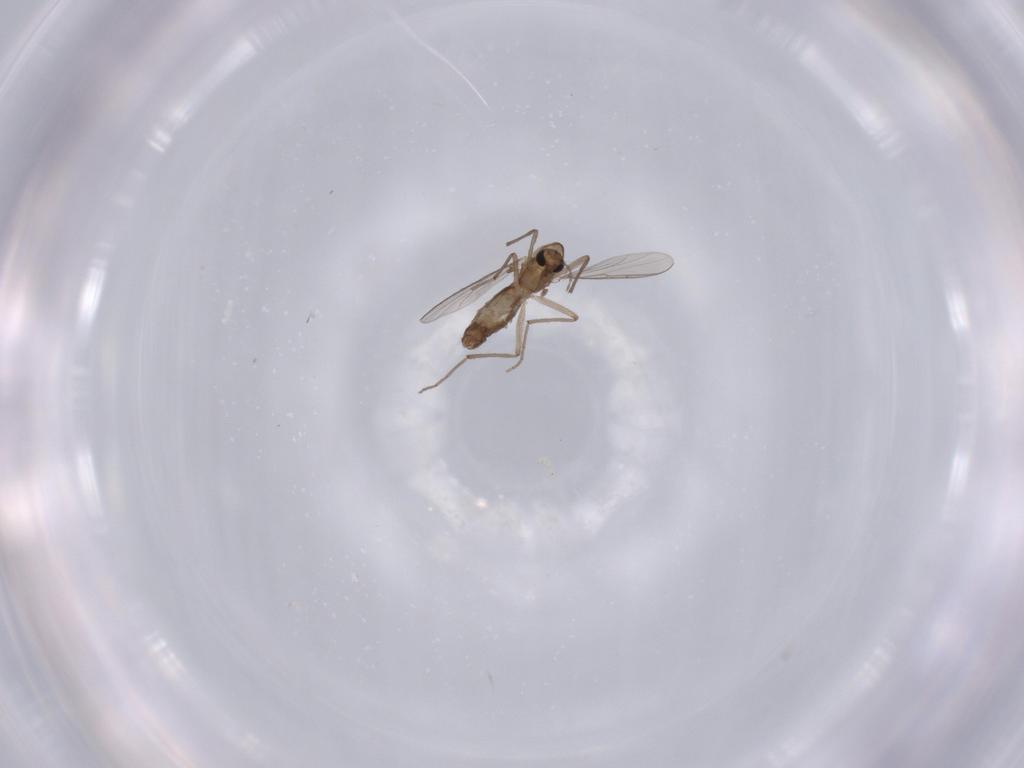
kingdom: Animalia
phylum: Arthropoda
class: Insecta
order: Diptera
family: Chironomidae
